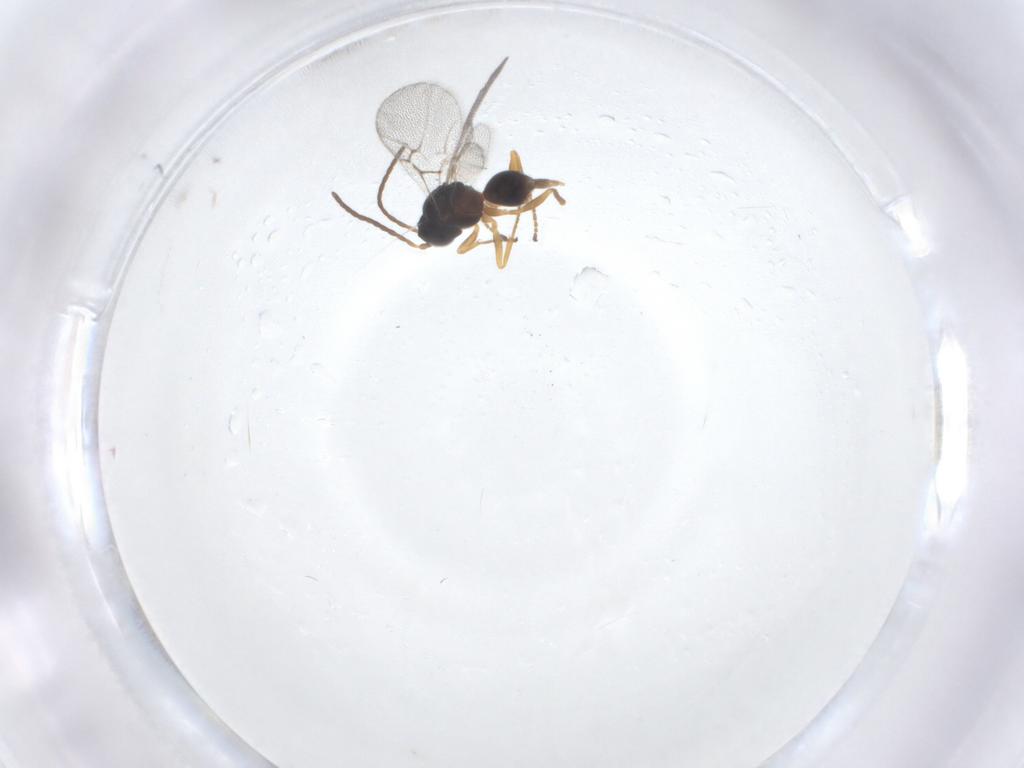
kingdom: Animalia
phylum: Arthropoda
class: Insecta
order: Hymenoptera
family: Cynipidae
